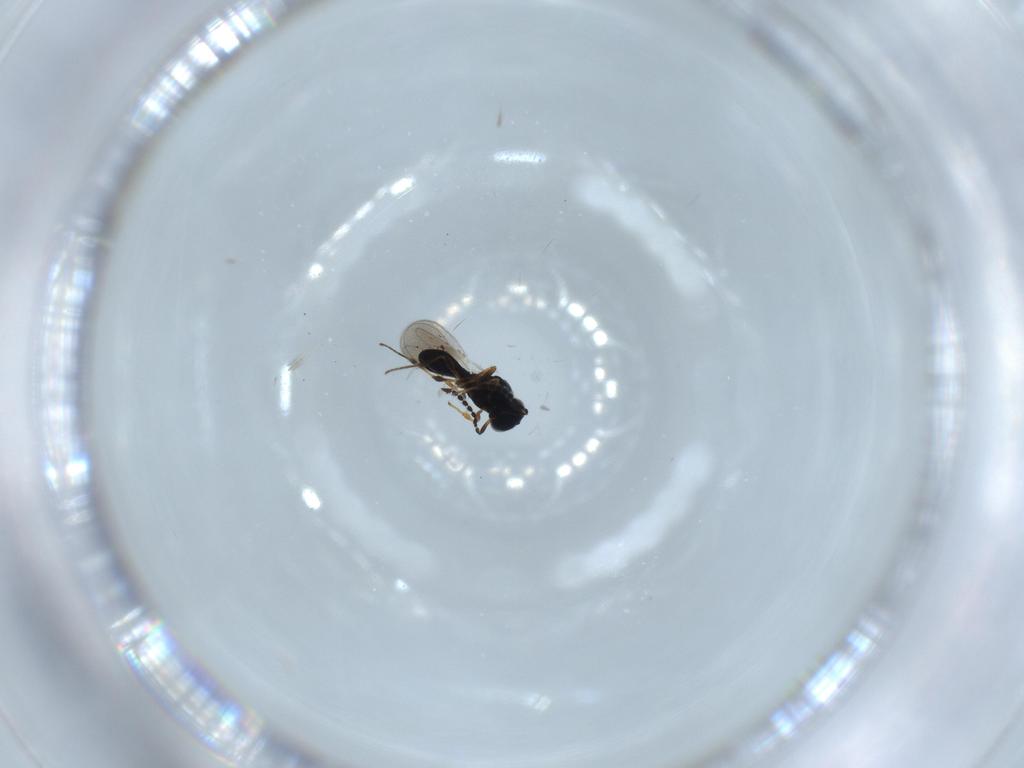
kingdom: Animalia
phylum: Arthropoda
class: Insecta
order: Hymenoptera
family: Platygastridae
